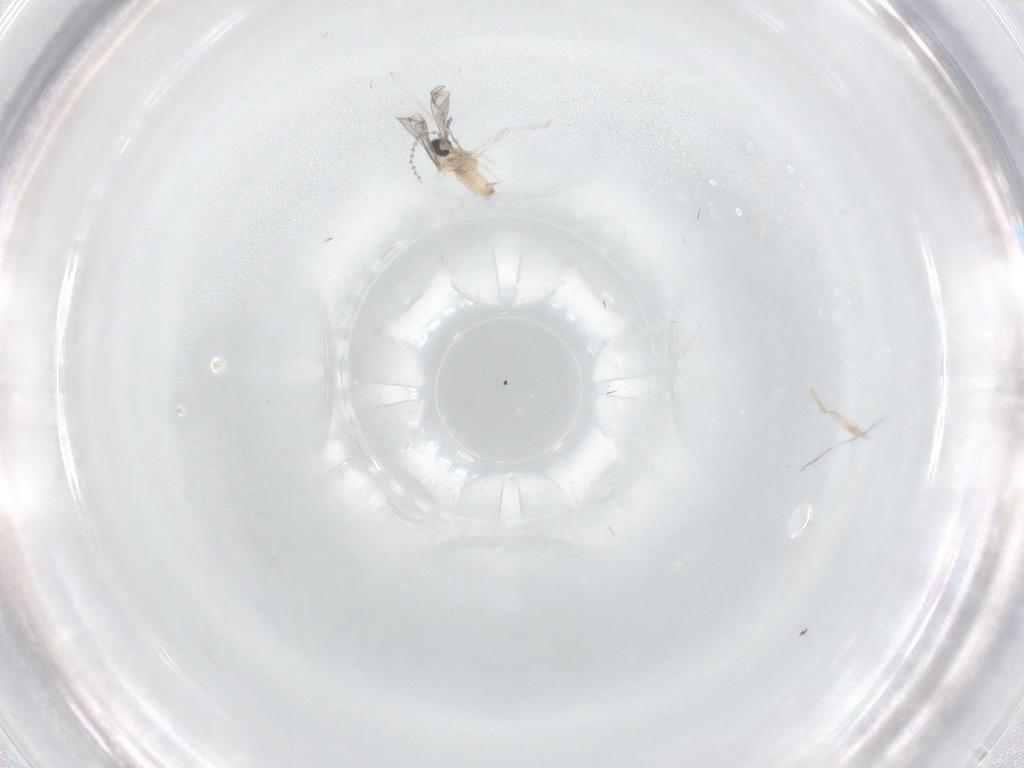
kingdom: Animalia
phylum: Arthropoda
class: Insecta
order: Diptera
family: Cecidomyiidae
